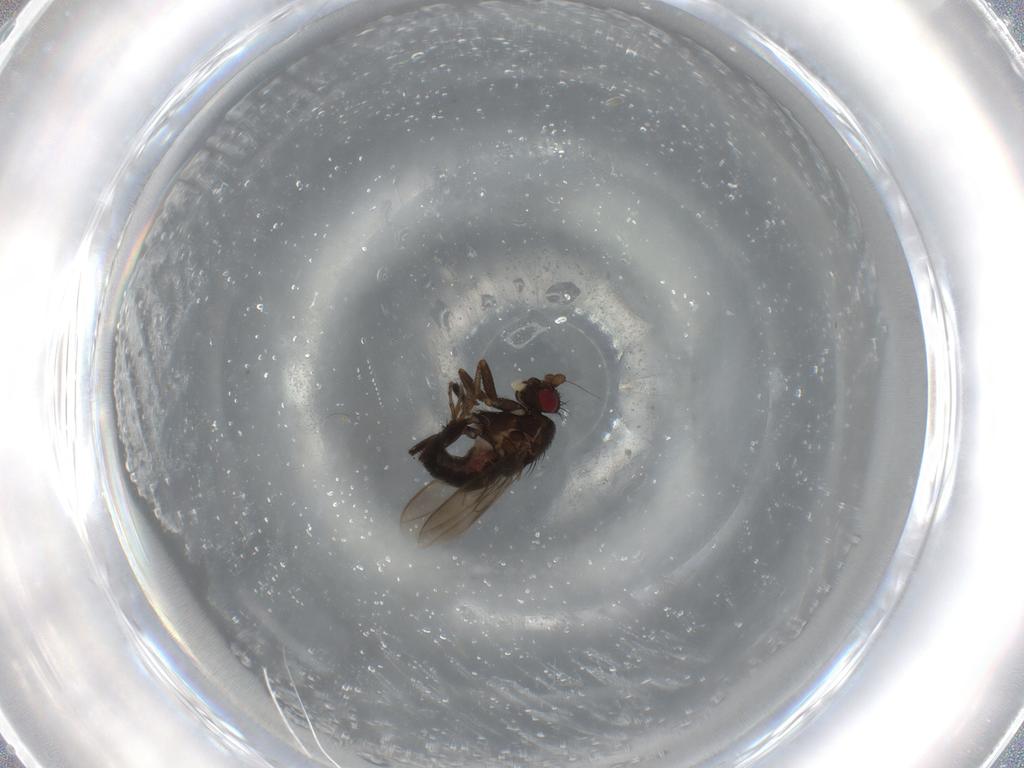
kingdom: Animalia
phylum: Arthropoda
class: Insecta
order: Diptera
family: Sphaeroceridae
